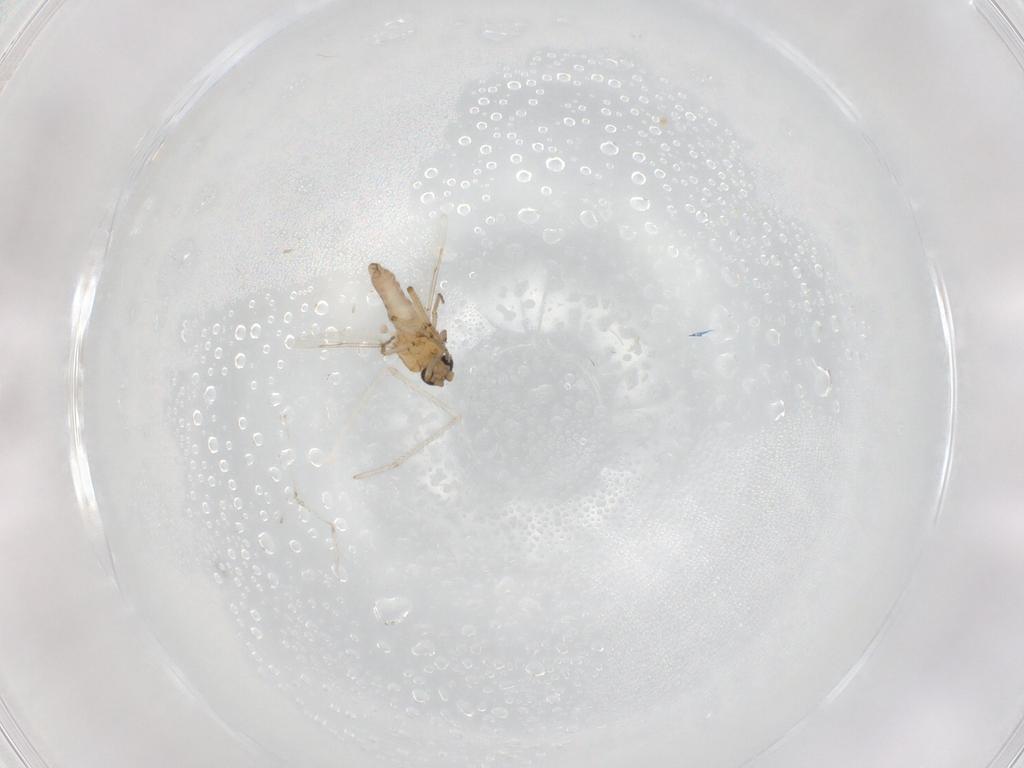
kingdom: Animalia
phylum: Arthropoda
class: Insecta
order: Diptera
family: Ceratopogonidae
